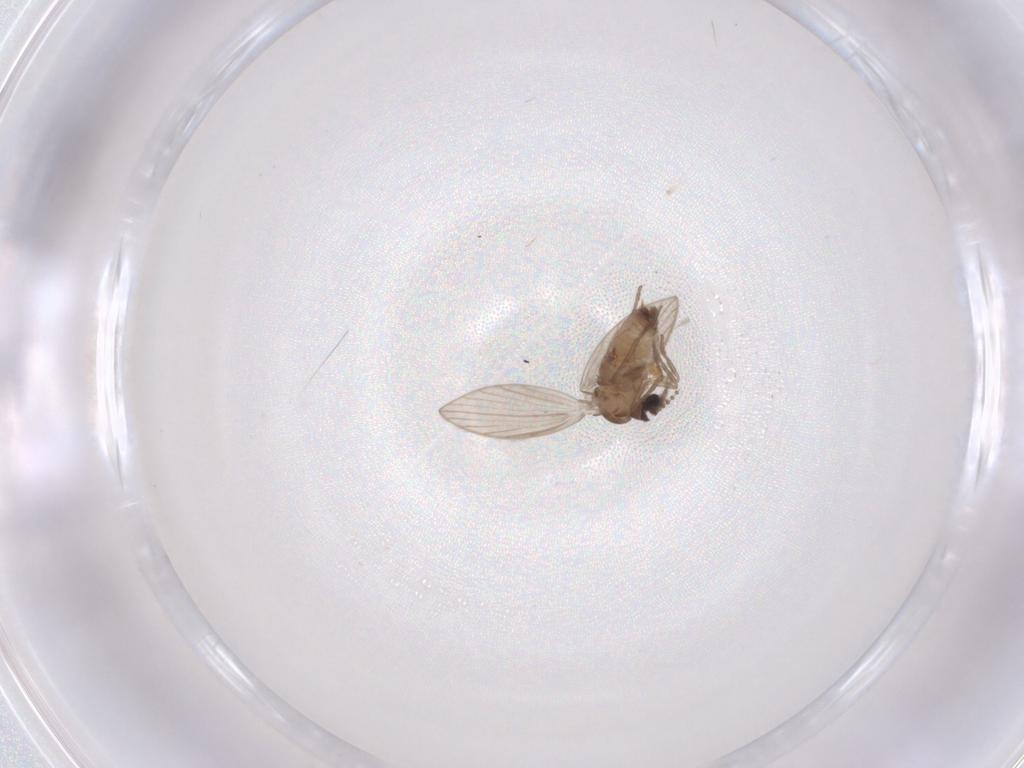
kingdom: Animalia
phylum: Arthropoda
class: Insecta
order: Diptera
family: Psychodidae
